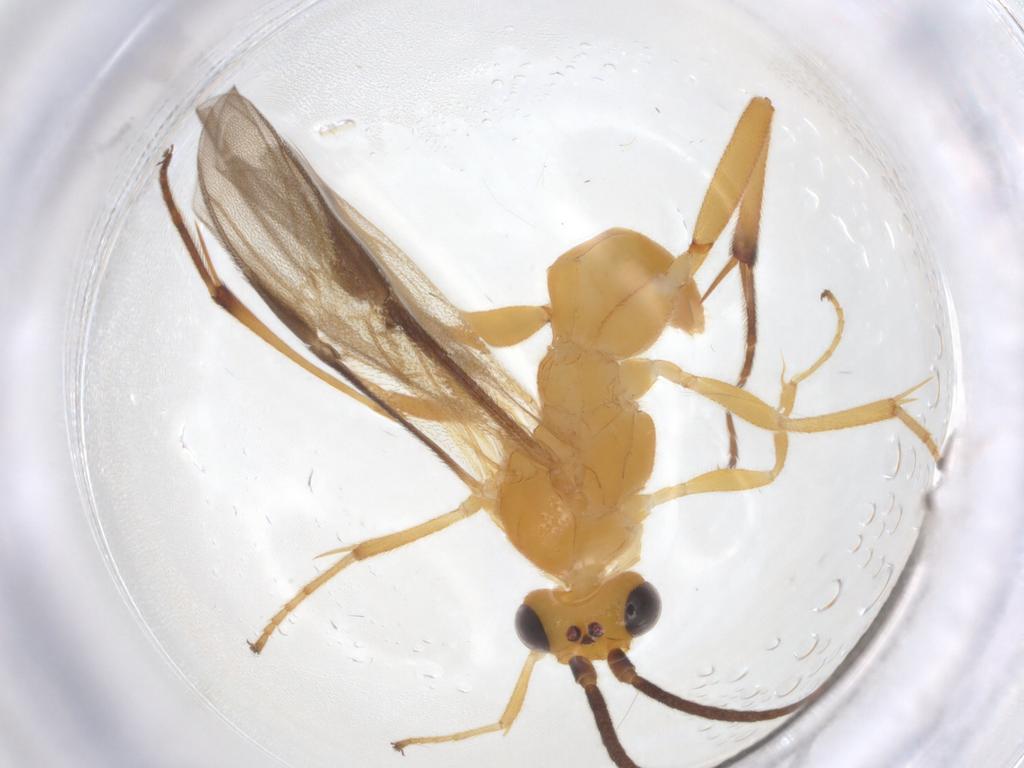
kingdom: Animalia
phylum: Arthropoda
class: Insecta
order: Hymenoptera
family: Braconidae
